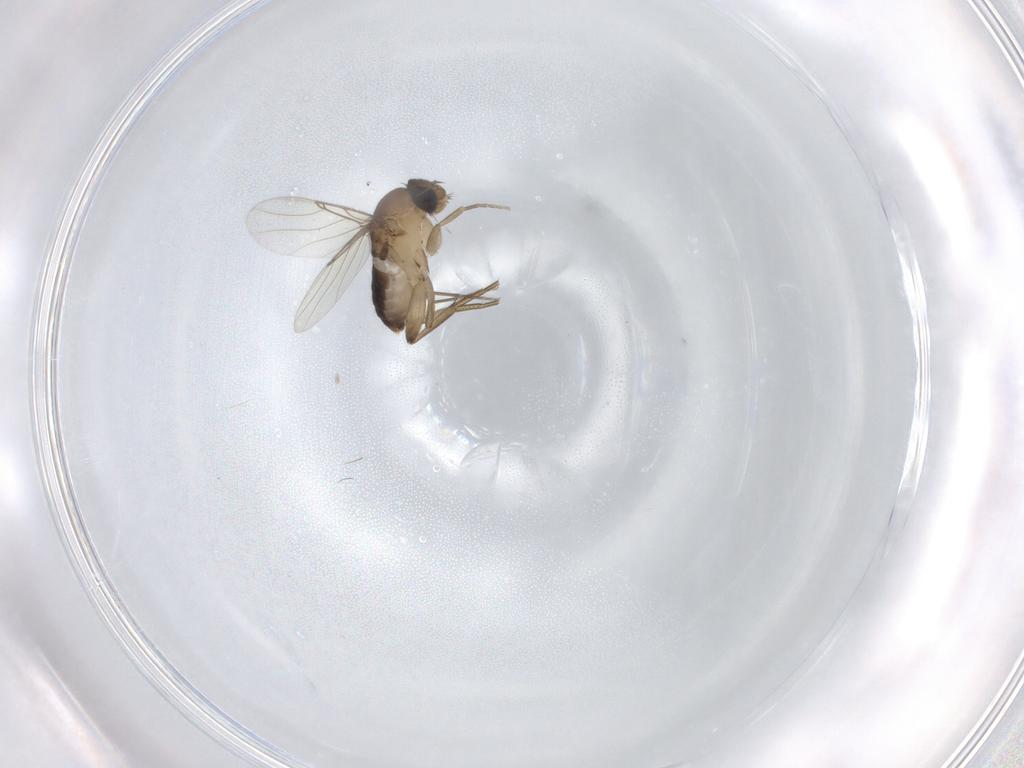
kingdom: Animalia
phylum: Arthropoda
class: Insecta
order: Diptera
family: Phoridae
